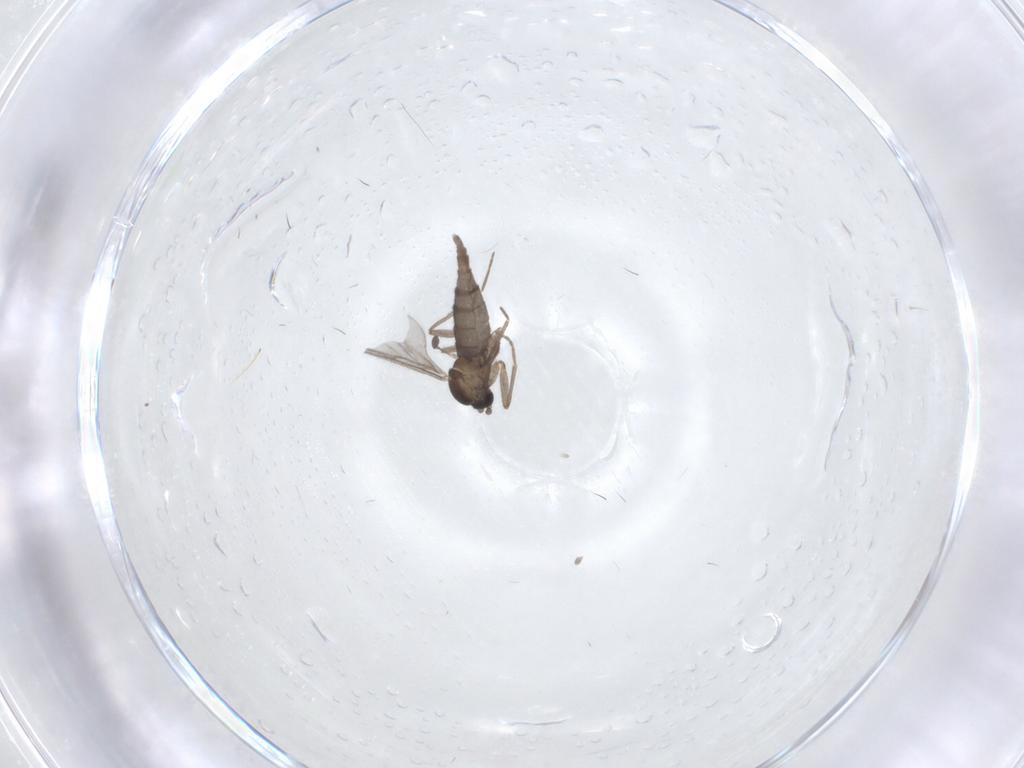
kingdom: Animalia
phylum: Arthropoda
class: Insecta
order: Diptera
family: Sciaridae
